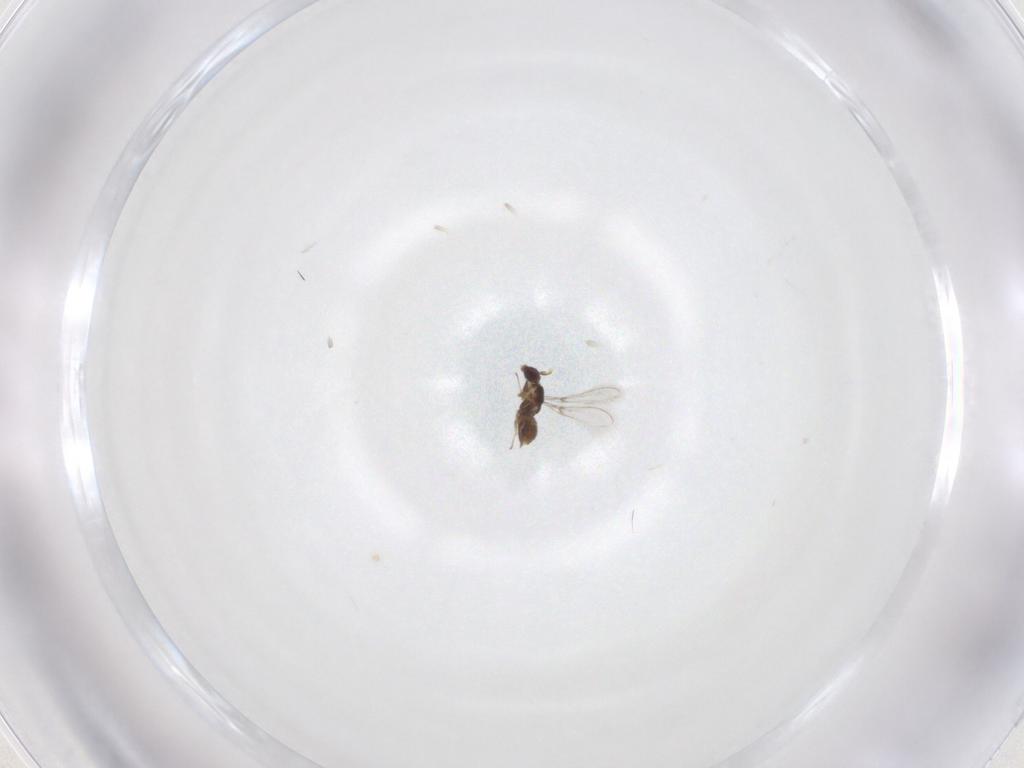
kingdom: Animalia
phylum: Arthropoda
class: Insecta
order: Hymenoptera
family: Mymaridae
